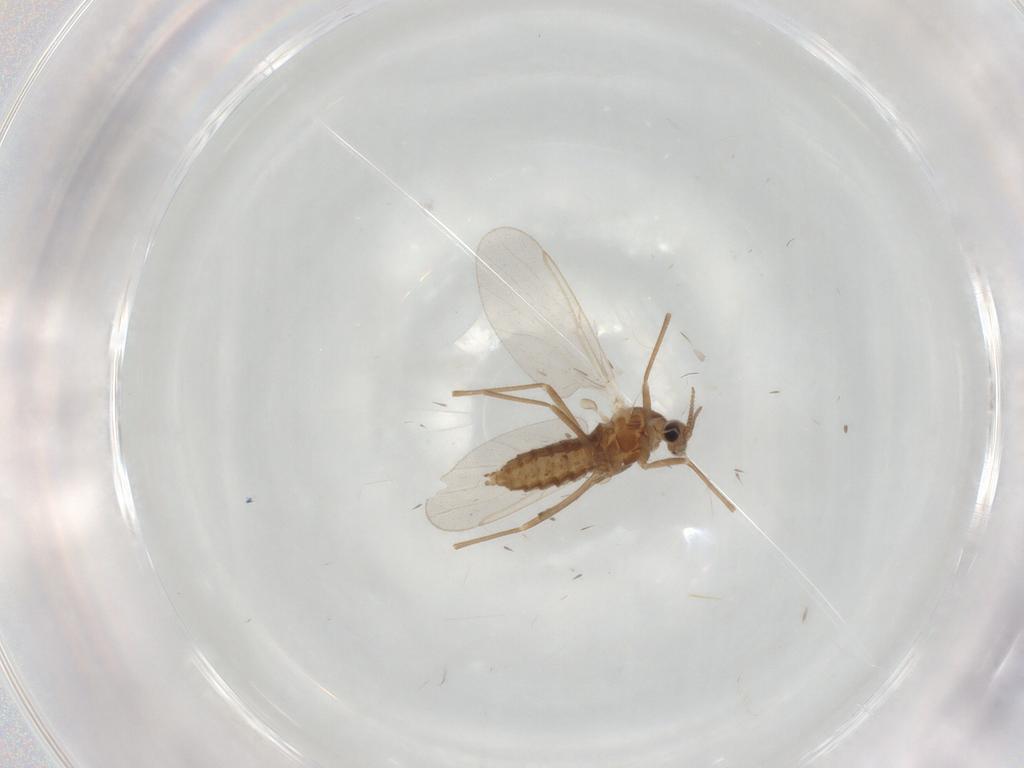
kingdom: Animalia
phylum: Arthropoda
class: Insecta
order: Diptera
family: Cecidomyiidae
